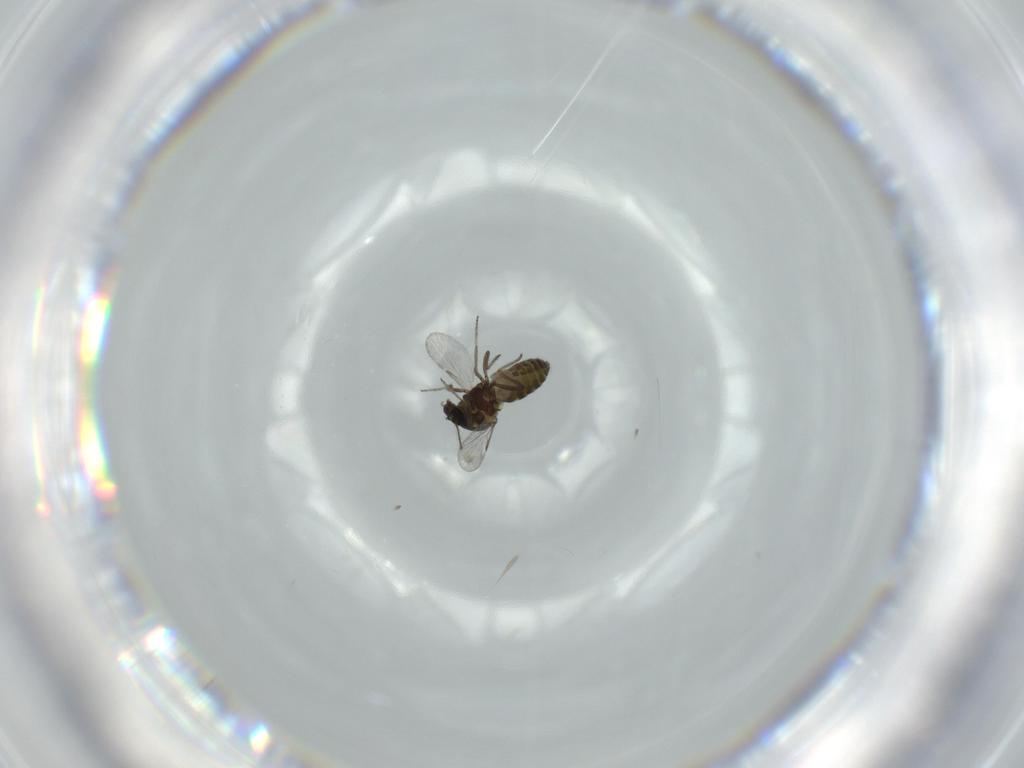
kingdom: Animalia
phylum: Arthropoda
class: Insecta
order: Diptera
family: Ceratopogonidae
